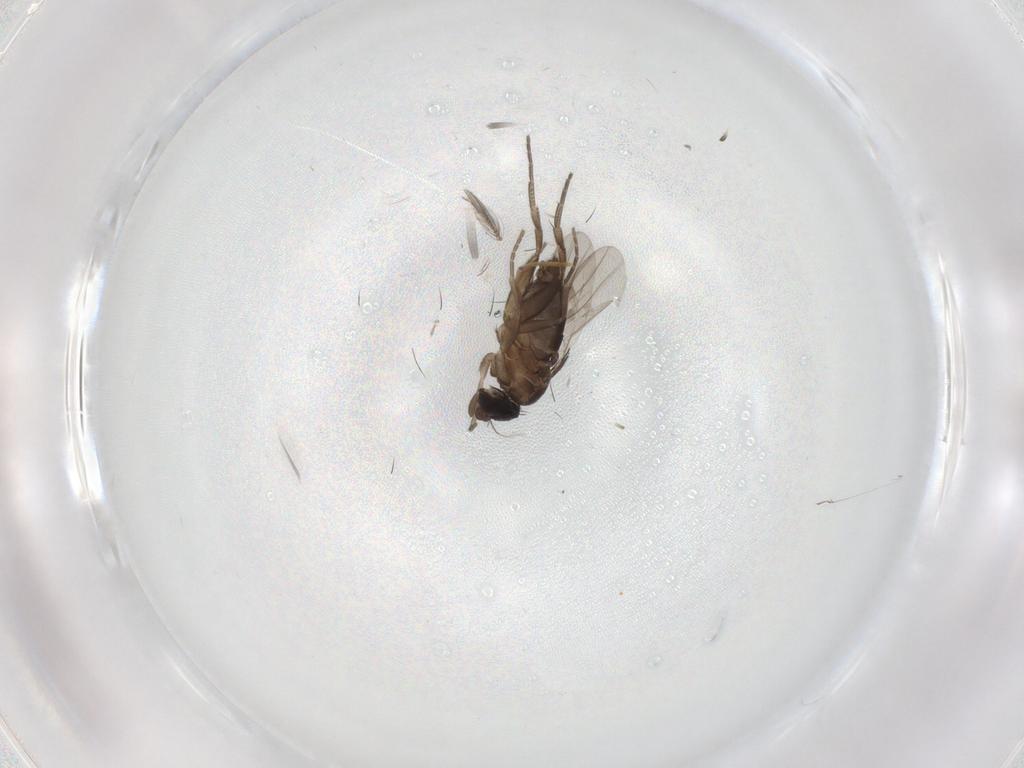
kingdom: Animalia
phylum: Arthropoda
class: Insecta
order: Diptera
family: Phoridae
